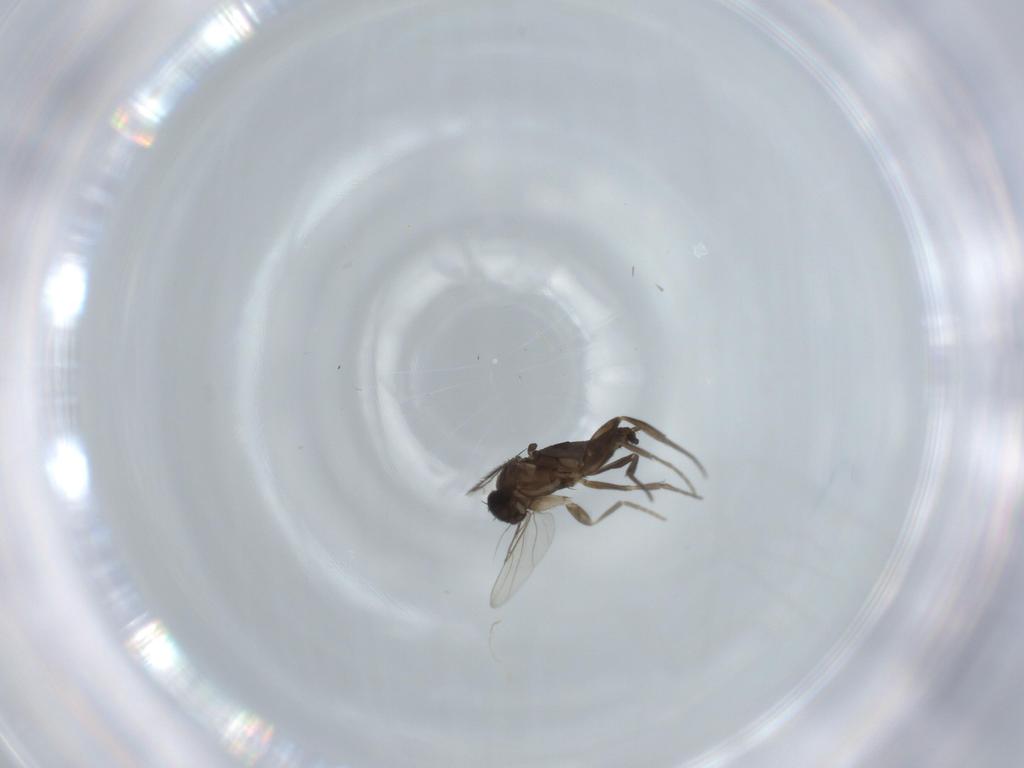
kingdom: Animalia
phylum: Arthropoda
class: Insecta
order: Diptera
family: Phoridae
